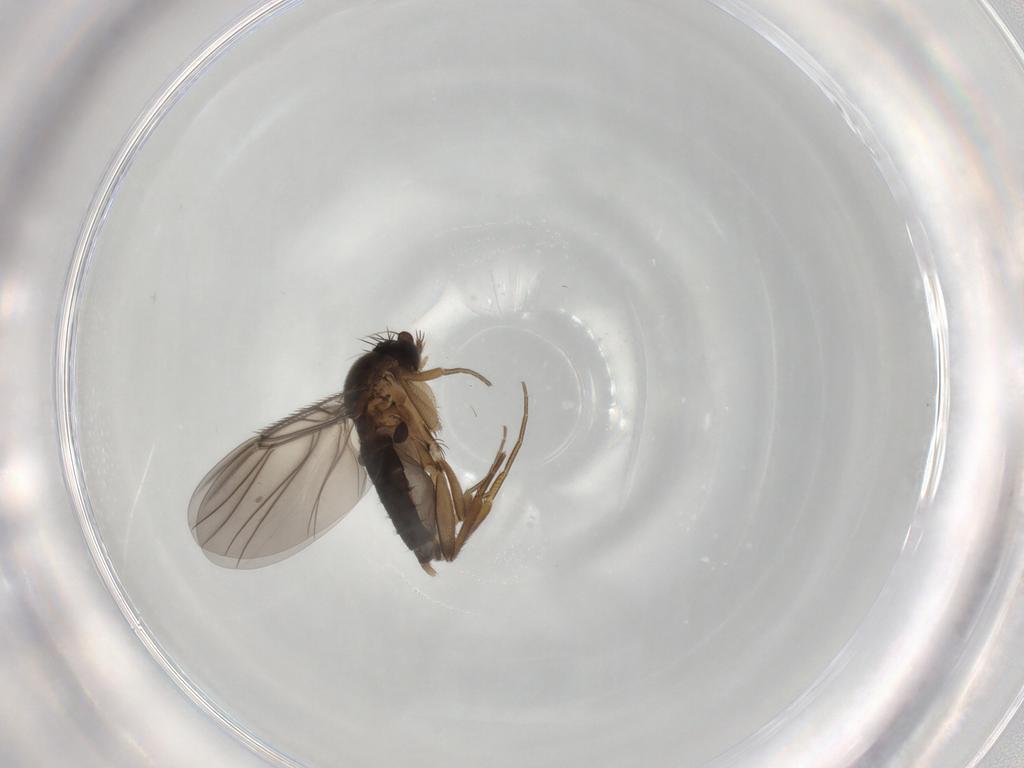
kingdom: Animalia
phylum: Arthropoda
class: Insecta
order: Diptera
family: Phoridae
